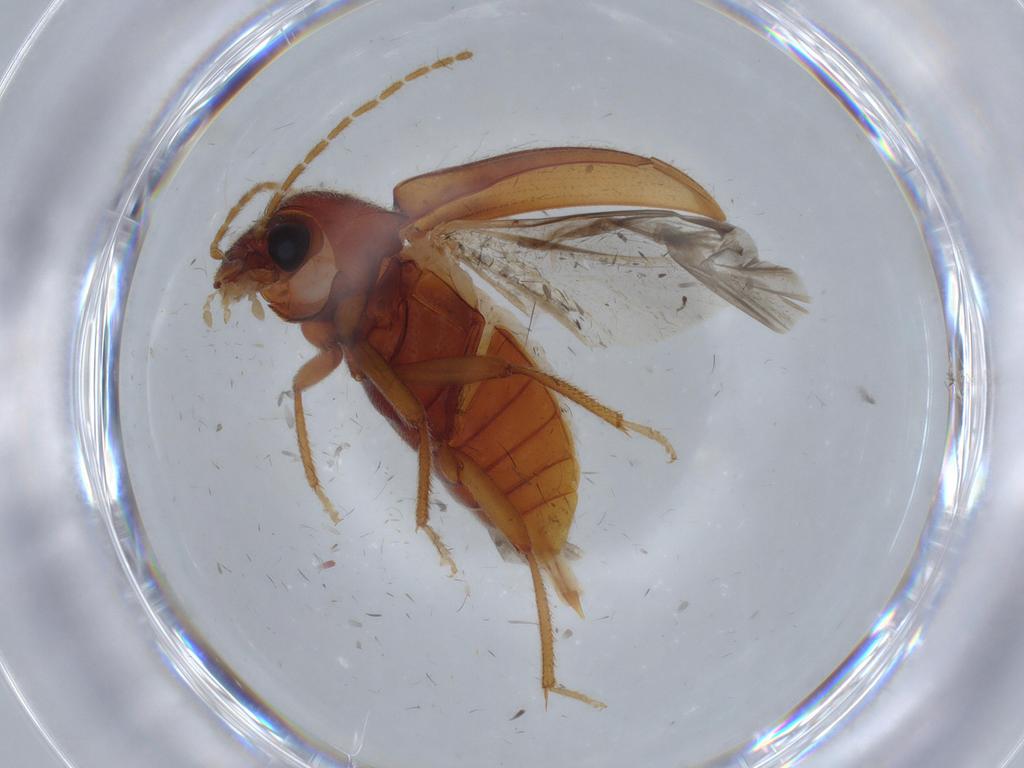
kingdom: Animalia
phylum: Arthropoda
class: Insecta
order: Coleoptera
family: Ptilodactylidae
